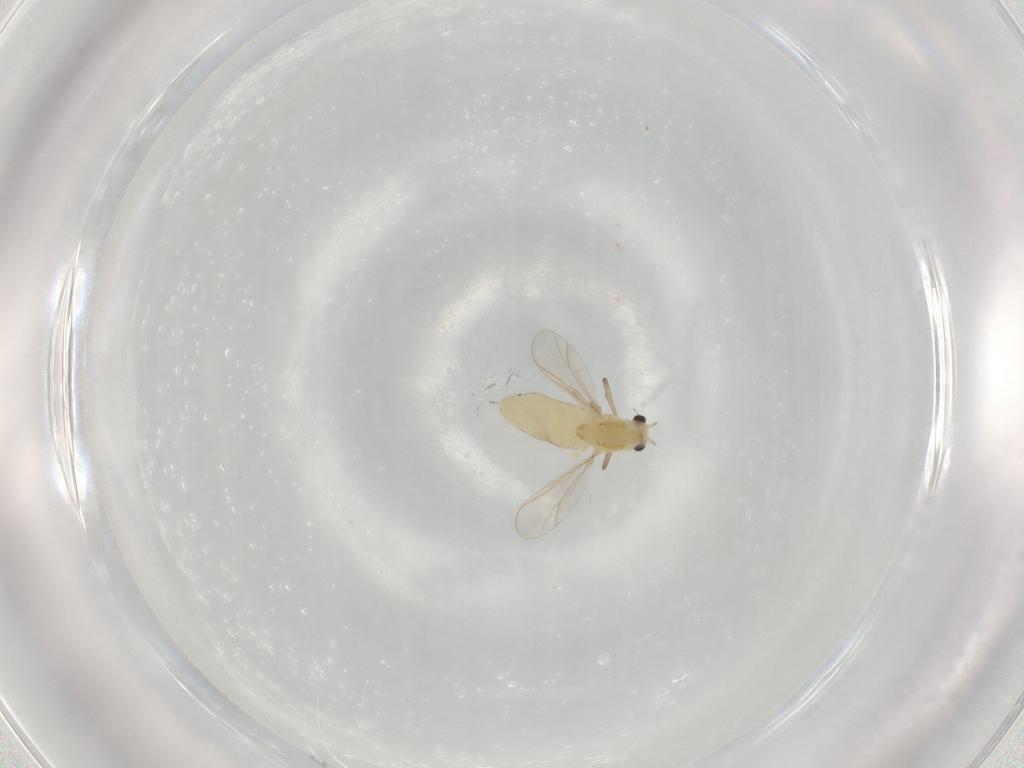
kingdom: Animalia
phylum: Arthropoda
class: Insecta
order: Diptera
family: Chironomidae
